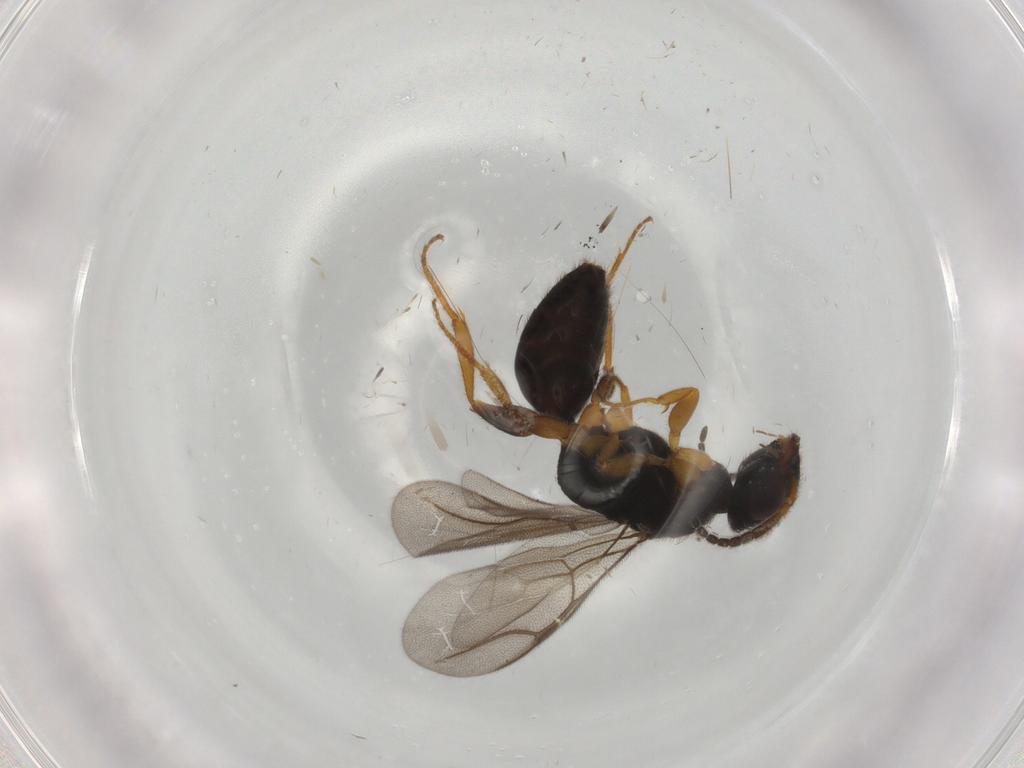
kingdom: Animalia
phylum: Arthropoda
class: Insecta
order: Hymenoptera
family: Bethylidae
